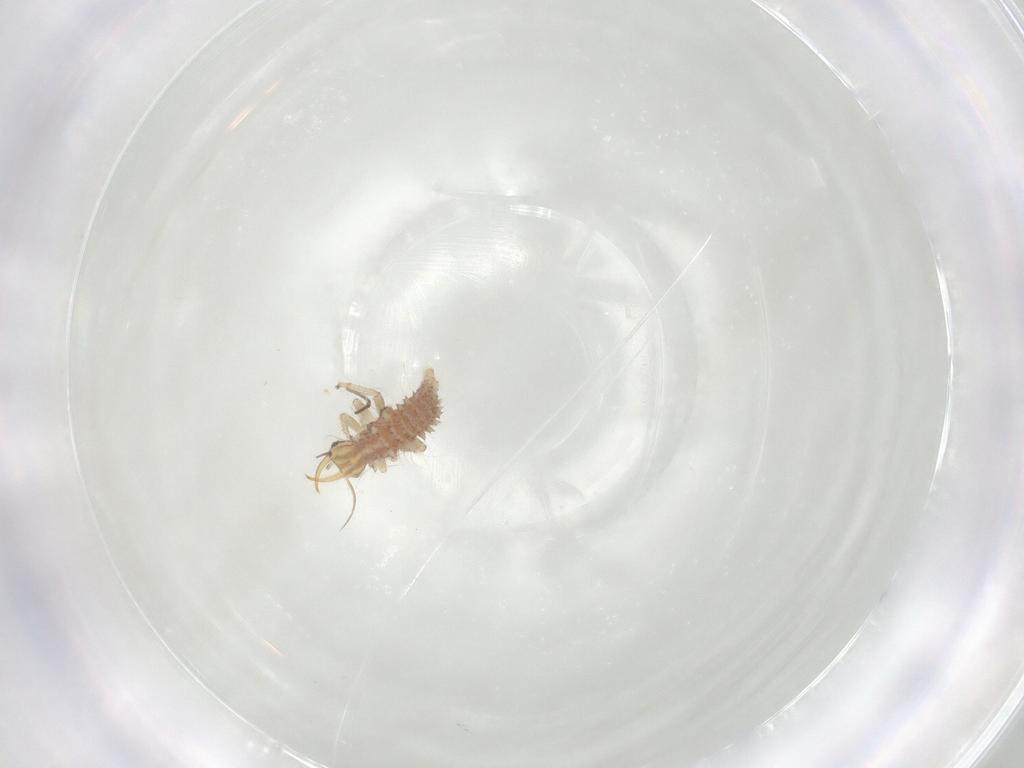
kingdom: Animalia
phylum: Arthropoda
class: Insecta
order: Neuroptera
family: Chrysopidae
